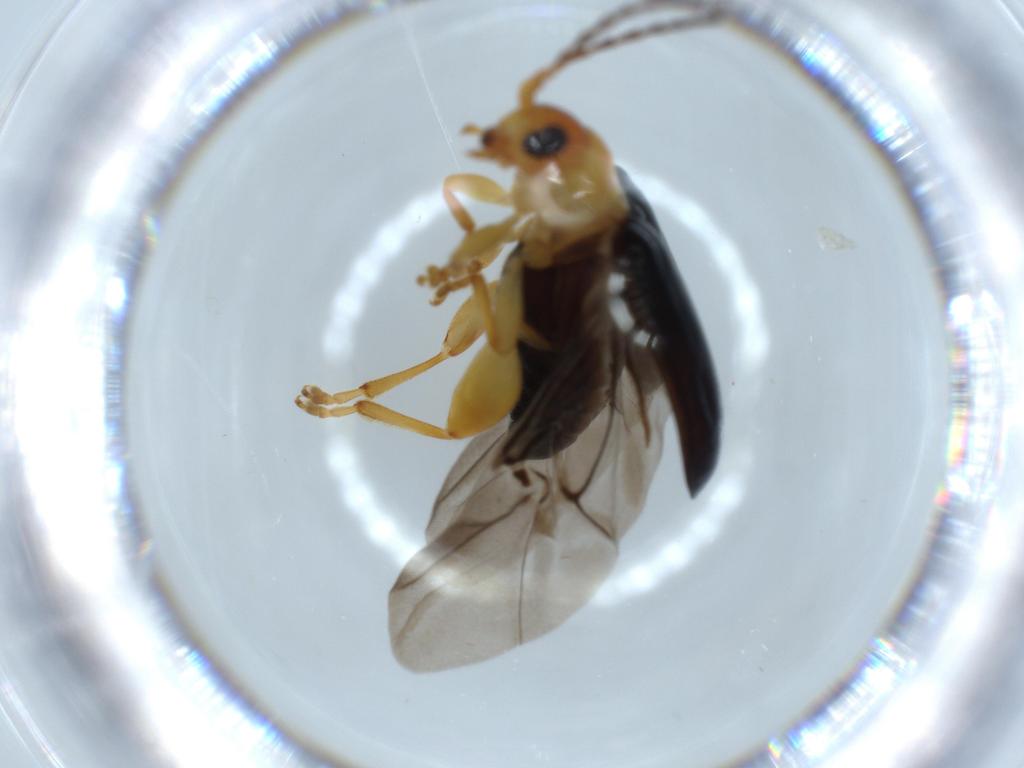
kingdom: Animalia
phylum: Arthropoda
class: Insecta
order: Coleoptera
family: Chrysomelidae
